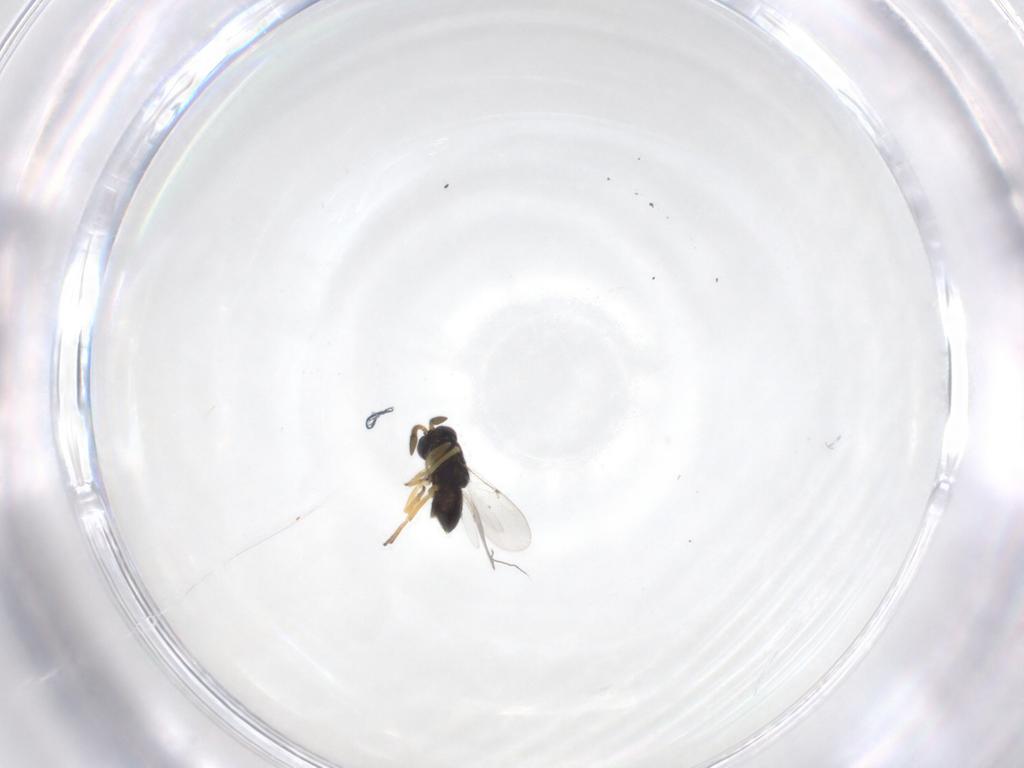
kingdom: Animalia
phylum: Arthropoda
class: Insecta
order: Hymenoptera
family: Encyrtidae
